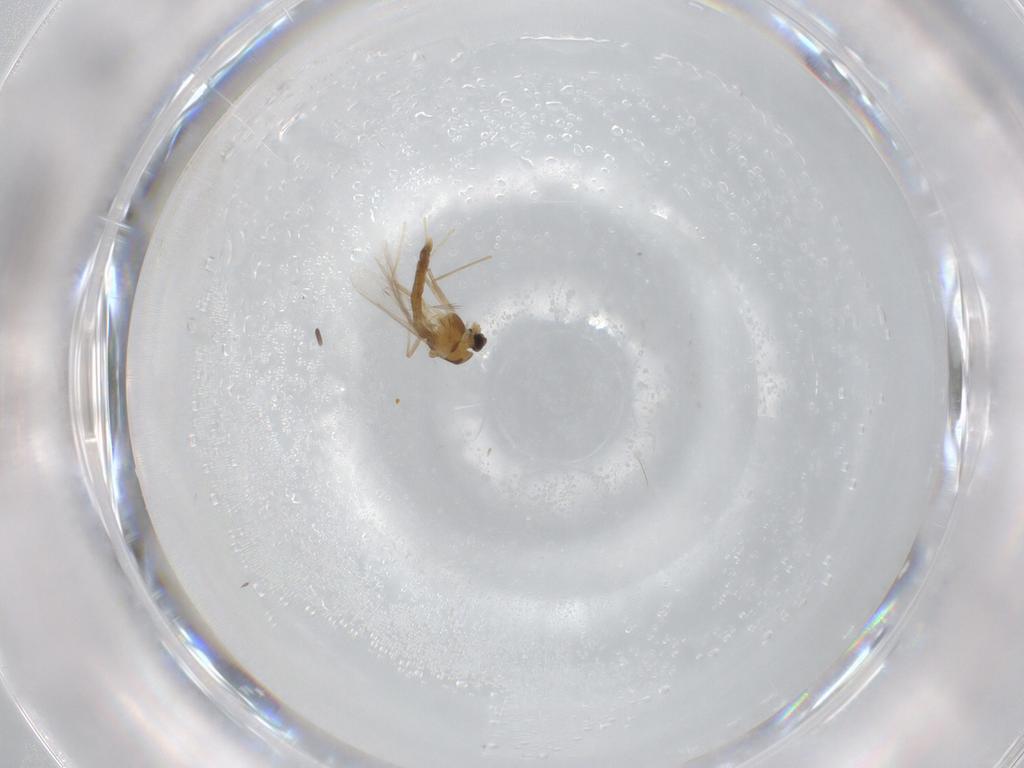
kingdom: Animalia
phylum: Arthropoda
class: Insecta
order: Diptera
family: Chironomidae
